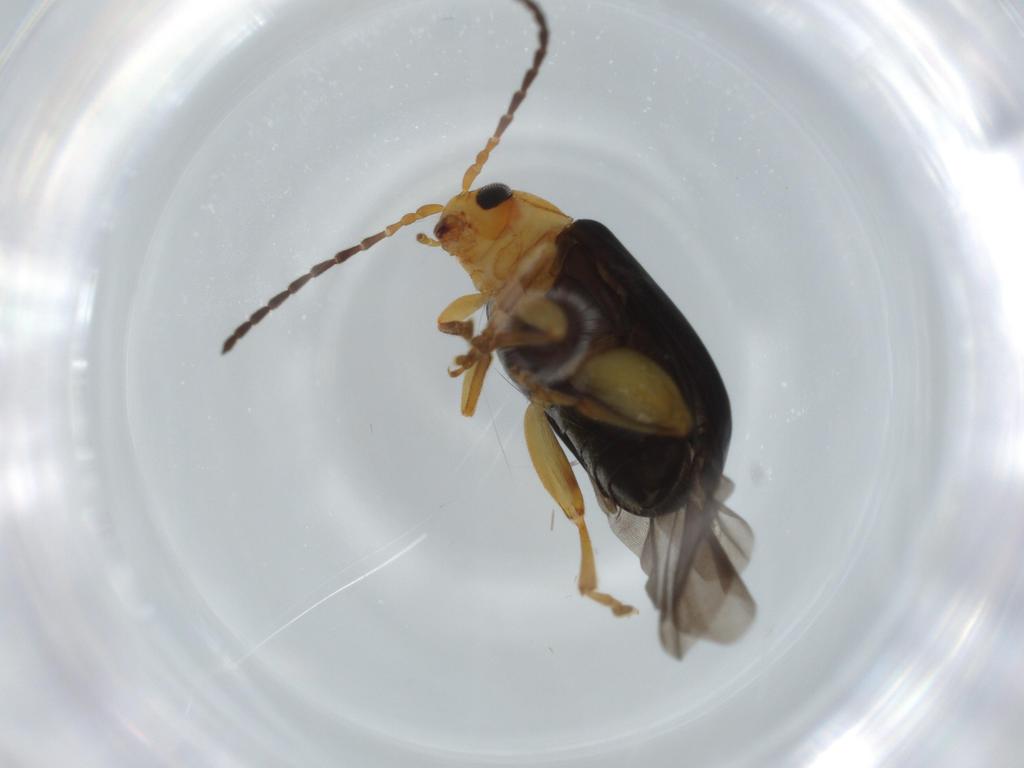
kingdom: Animalia
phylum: Arthropoda
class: Insecta
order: Coleoptera
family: Chrysomelidae
